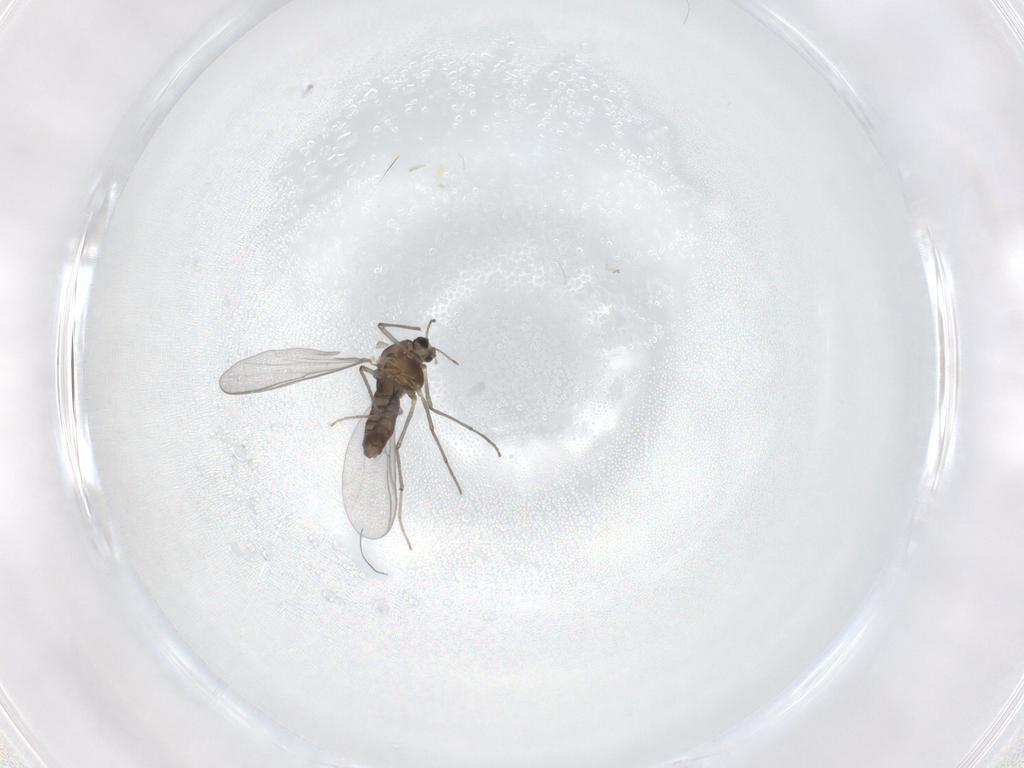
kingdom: Animalia
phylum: Arthropoda
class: Insecta
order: Diptera
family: Chironomidae
